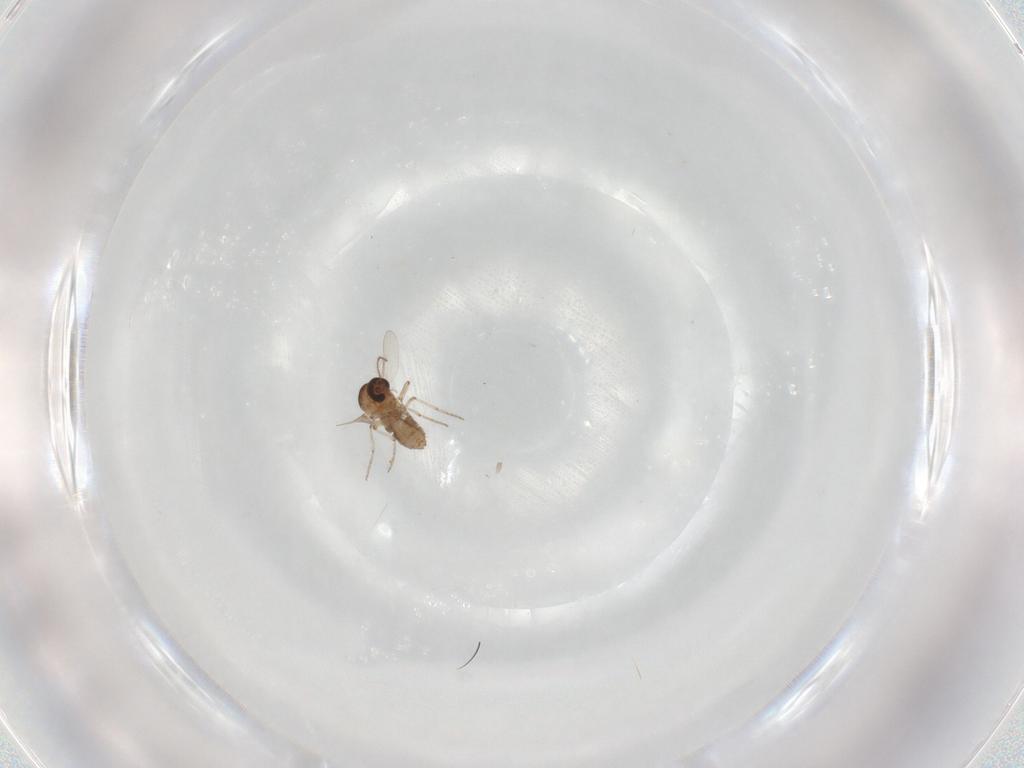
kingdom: Animalia
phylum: Arthropoda
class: Insecta
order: Diptera
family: Ceratopogonidae
